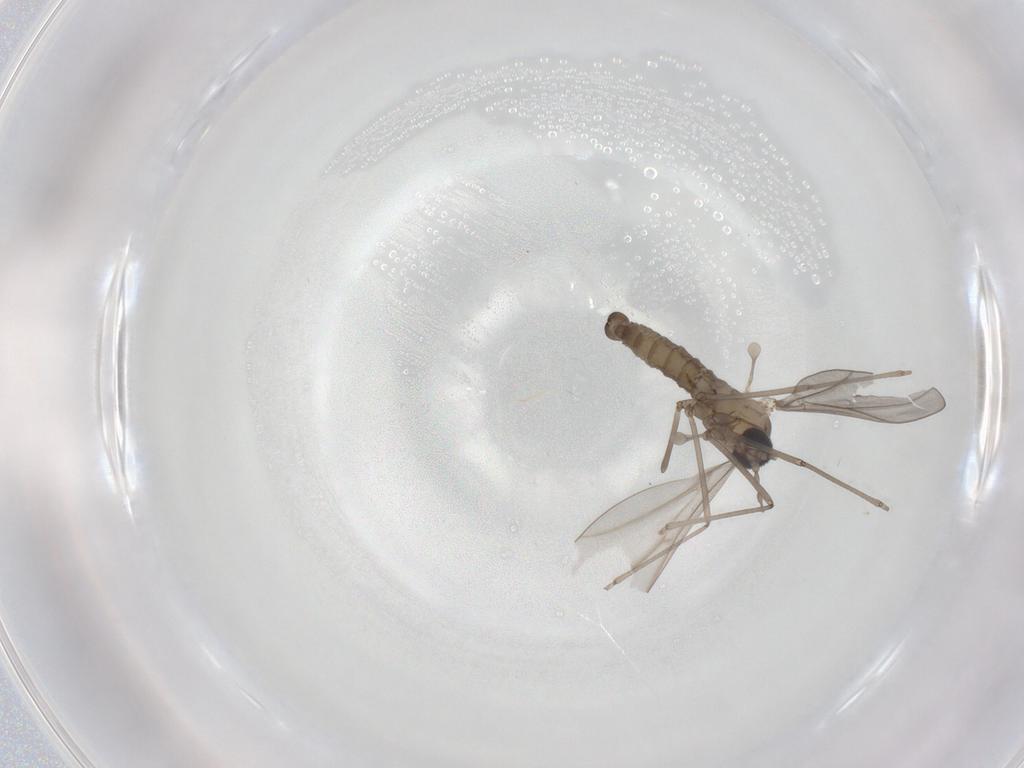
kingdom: Animalia
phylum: Arthropoda
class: Insecta
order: Diptera
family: Cecidomyiidae
